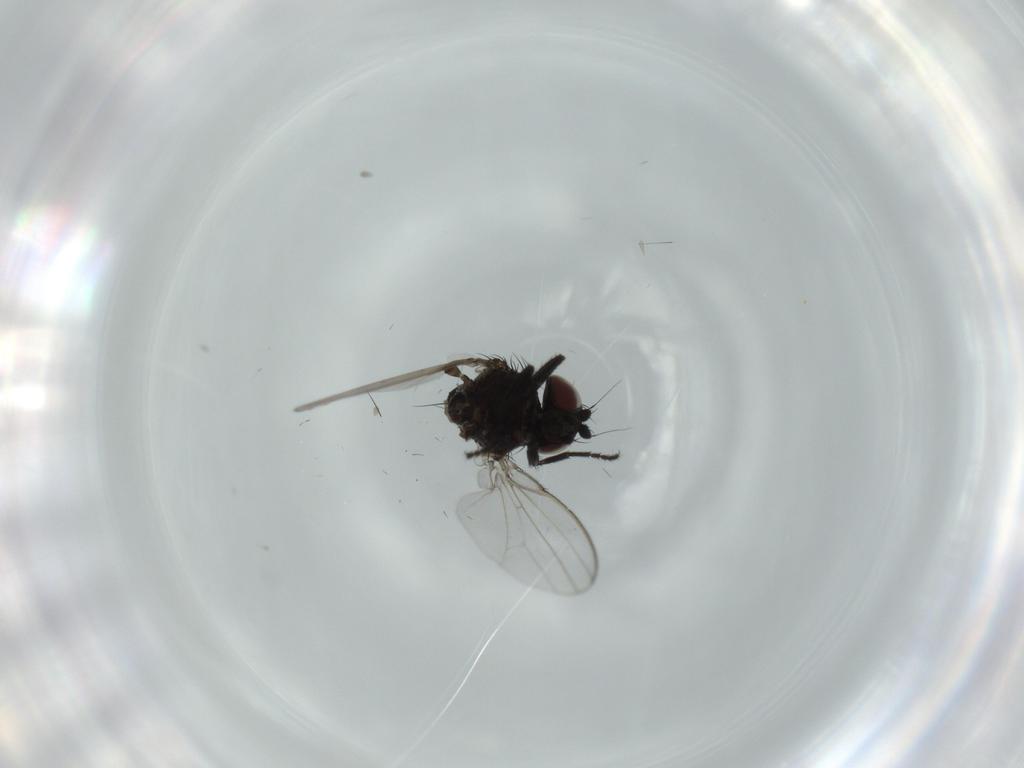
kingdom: Animalia
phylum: Arthropoda
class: Insecta
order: Diptera
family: Milichiidae
